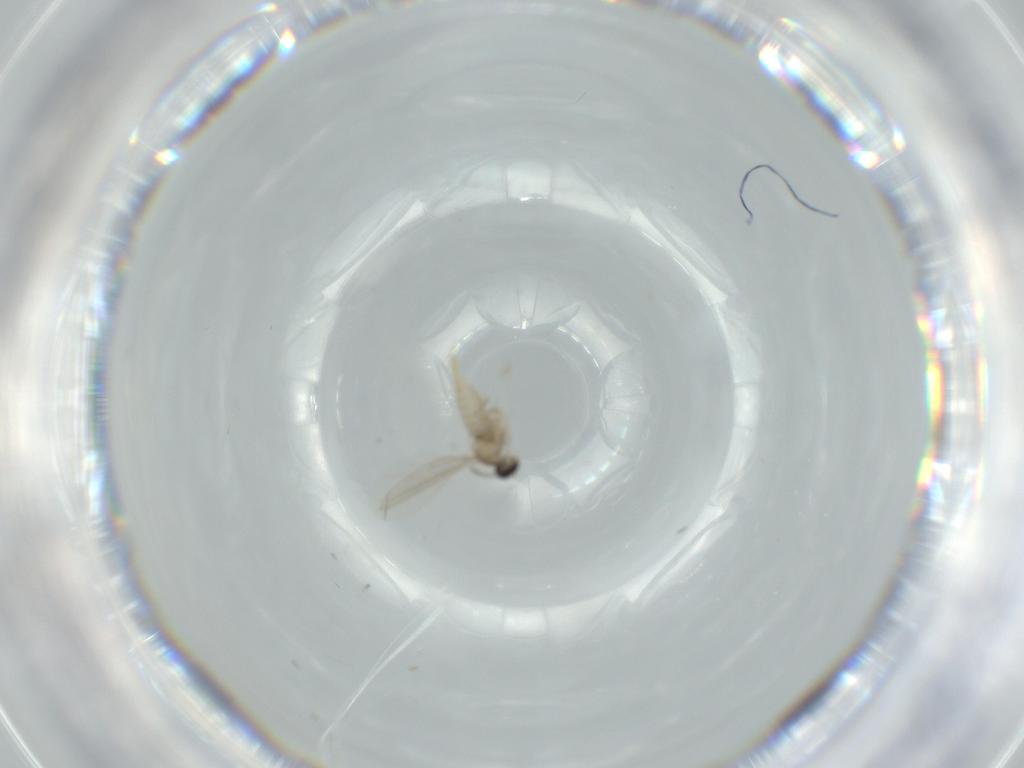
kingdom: Animalia
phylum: Arthropoda
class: Insecta
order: Diptera
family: Cecidomyiidae
